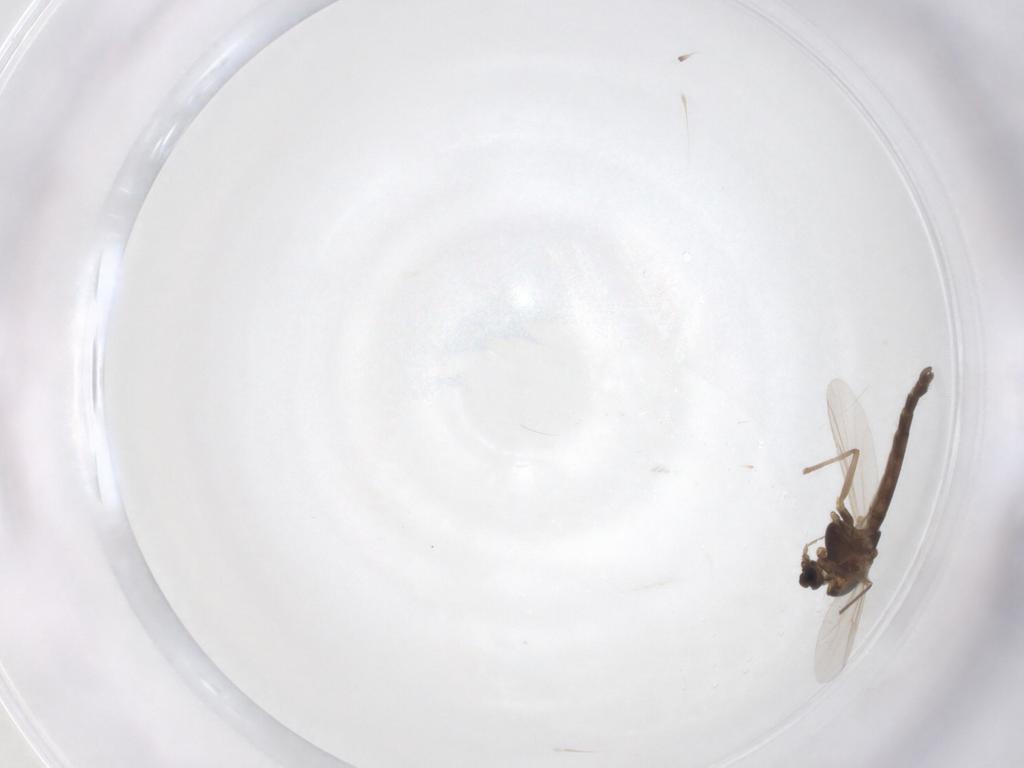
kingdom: Animalia
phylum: Arthropoda
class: Insecta
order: Diptera
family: Chironomidae
